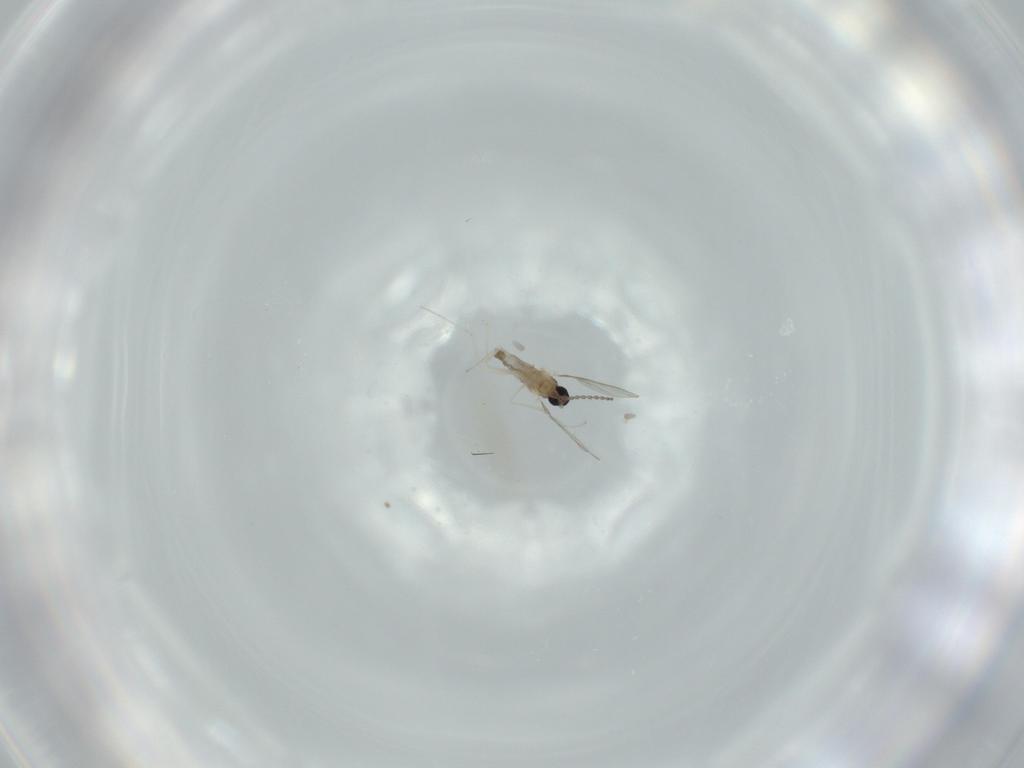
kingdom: Animalia
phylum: Arthropoda
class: Insecta
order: Diptera
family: Cecidomyiidae
